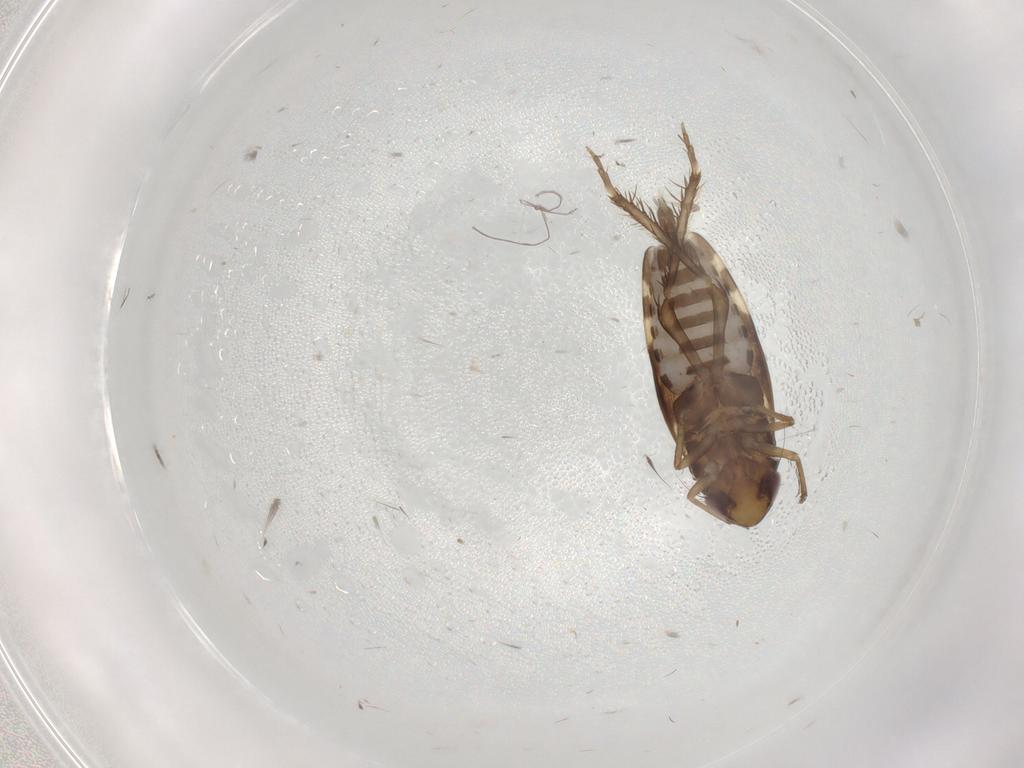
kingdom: Animalia
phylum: Arthropoda
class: Insecta
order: Hemiptera
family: Cicadellidae
